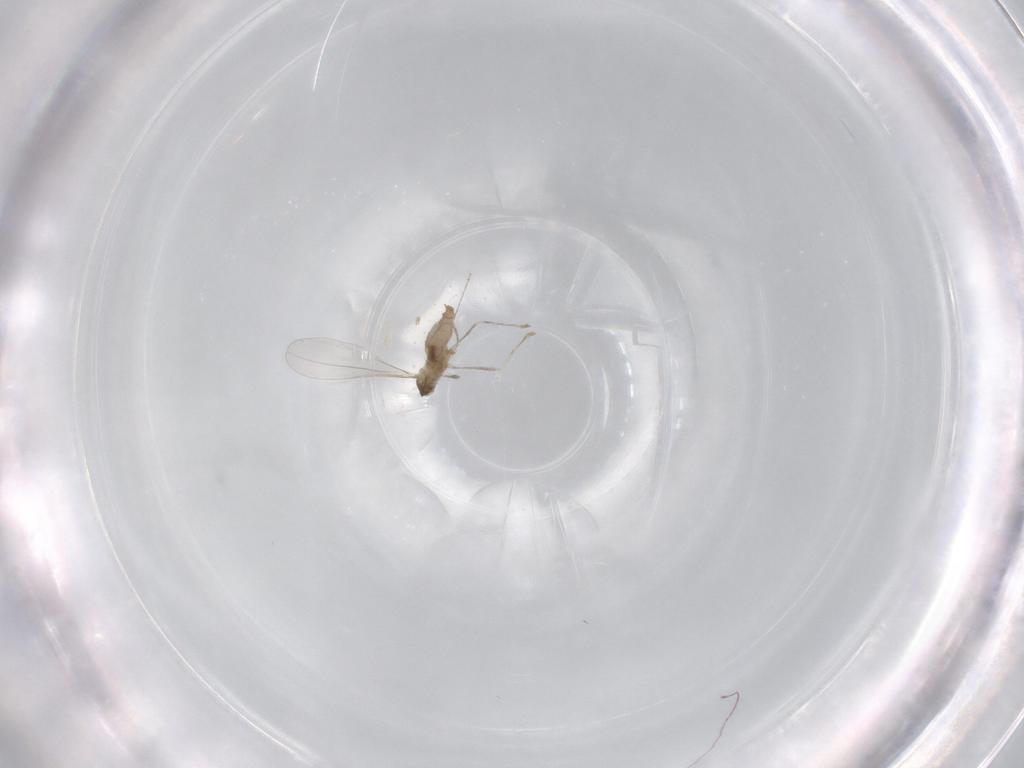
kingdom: Animalia
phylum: Arthropoda
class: Insecta
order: Diptera
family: Cecidomyiidae
